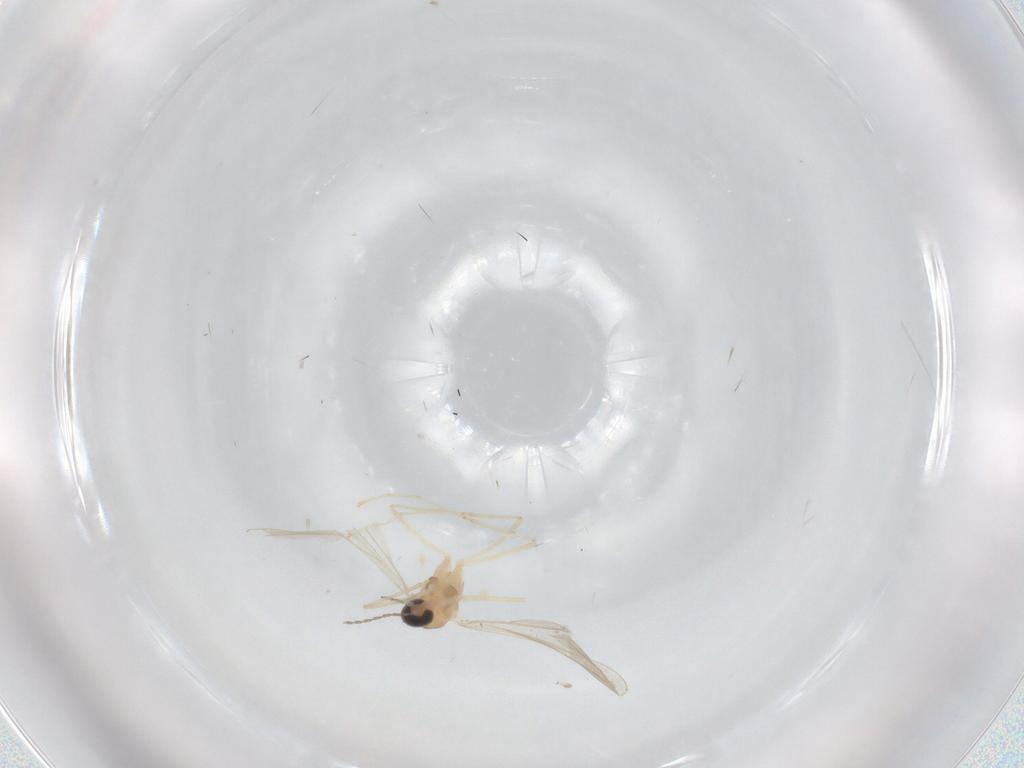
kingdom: Animalia
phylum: Arthropoda
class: Insecta
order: Diptera
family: Cecidomyiidae
